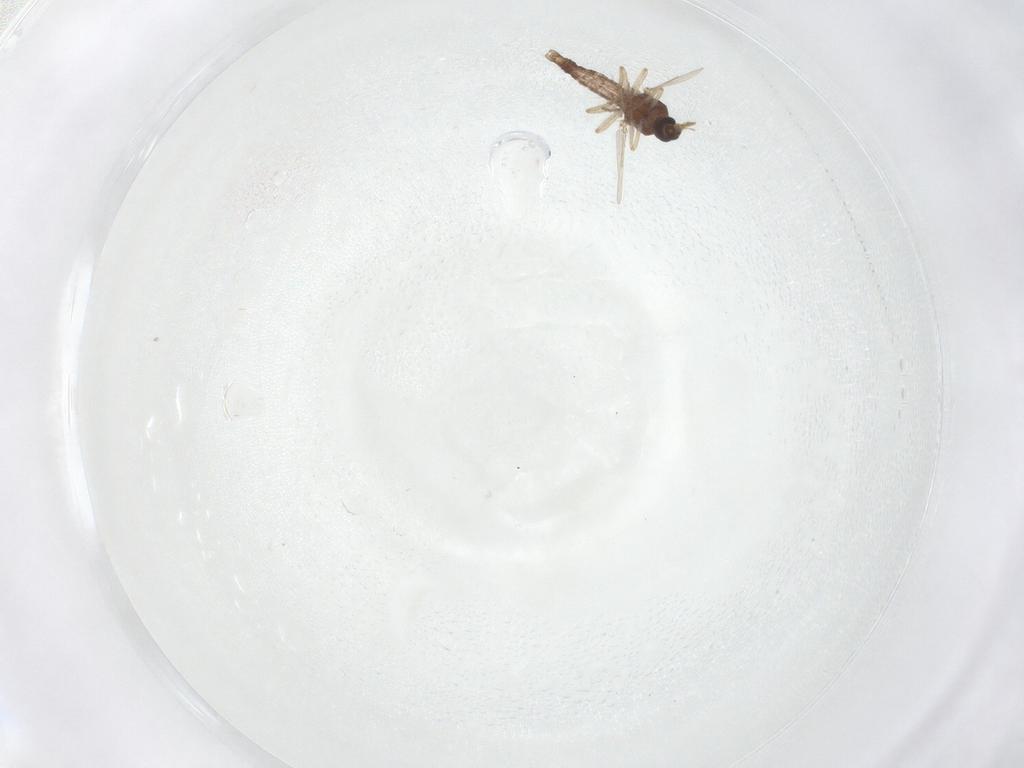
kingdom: Animalia
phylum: Arthropoda
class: Insecta
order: Diptera
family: Ceratopogonidae
